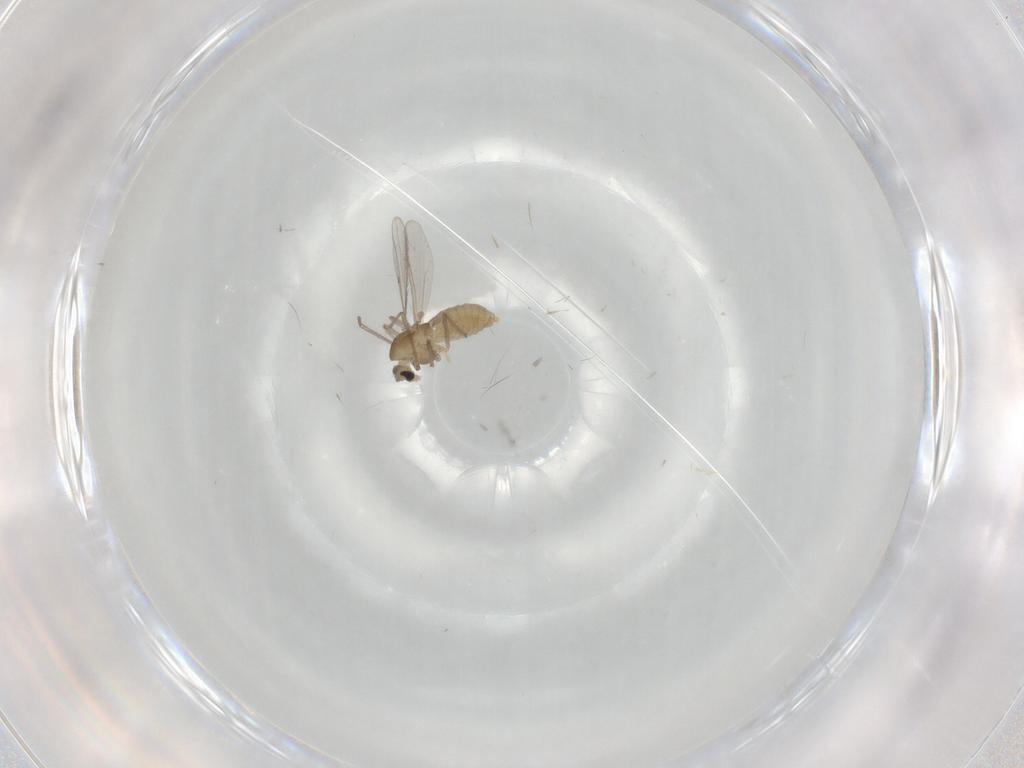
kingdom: Animalia
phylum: Arthropoda
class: Insecta
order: Diptera
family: Chironomidae
